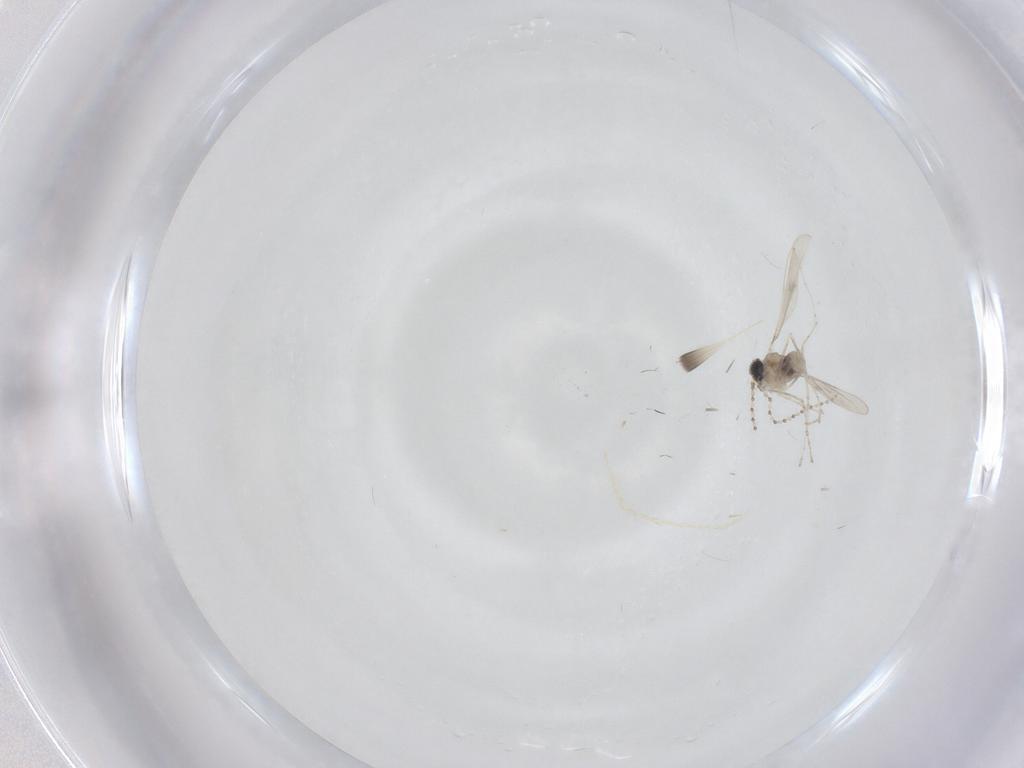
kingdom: Animalia
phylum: Arthropoda
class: Insecta
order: Diptera
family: Cecidomyiidae
